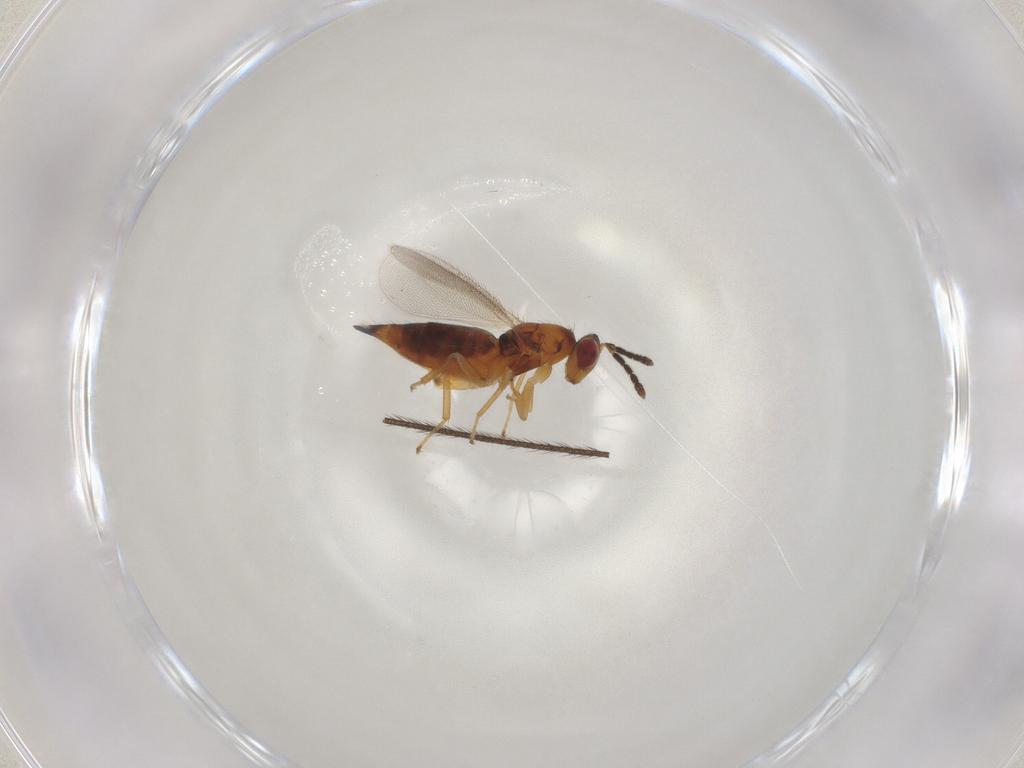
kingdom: Animalia
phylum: Arthropoda
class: Insecta
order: Hymenoptera
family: Eulophidae
